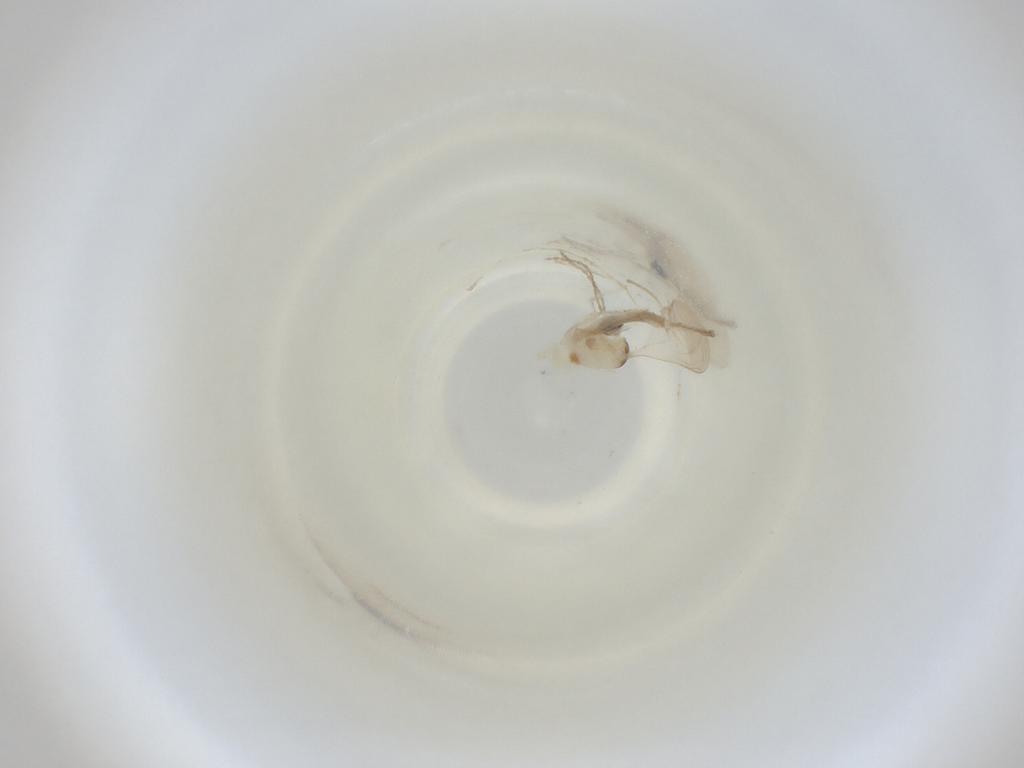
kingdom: Animalia
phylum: Arthropoda
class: Insecta
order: Diptera
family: Cecidomyiidae
